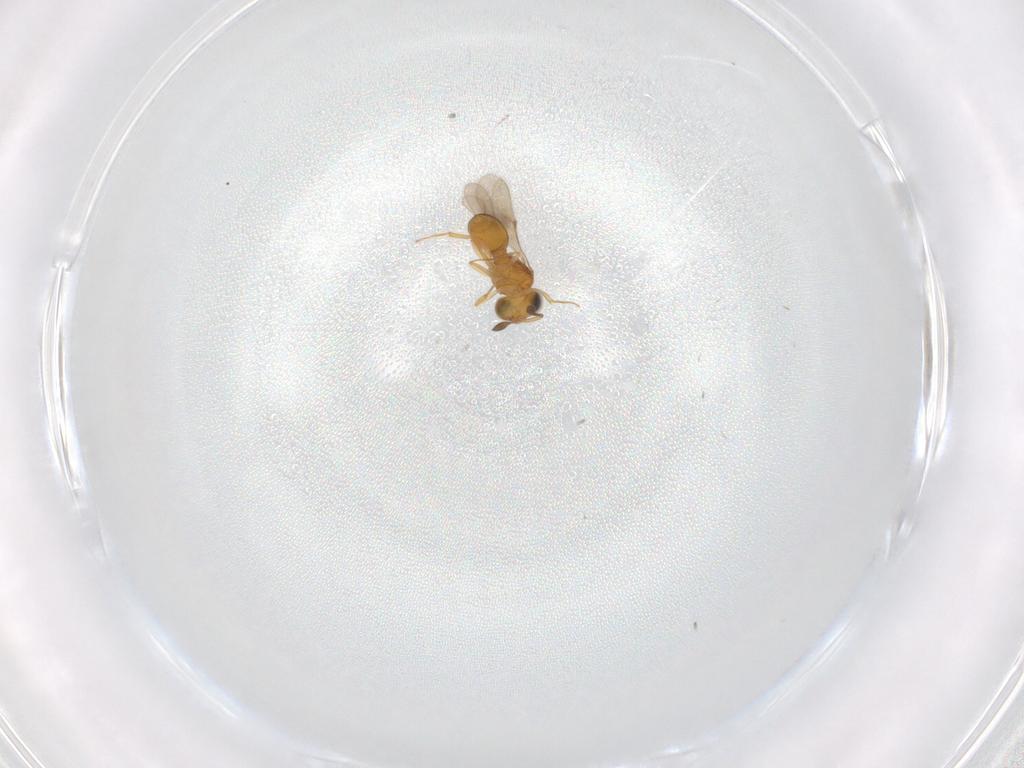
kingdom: Animalia
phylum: Arthropoda
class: Insecta
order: Hymenoptera
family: Scelionidae
